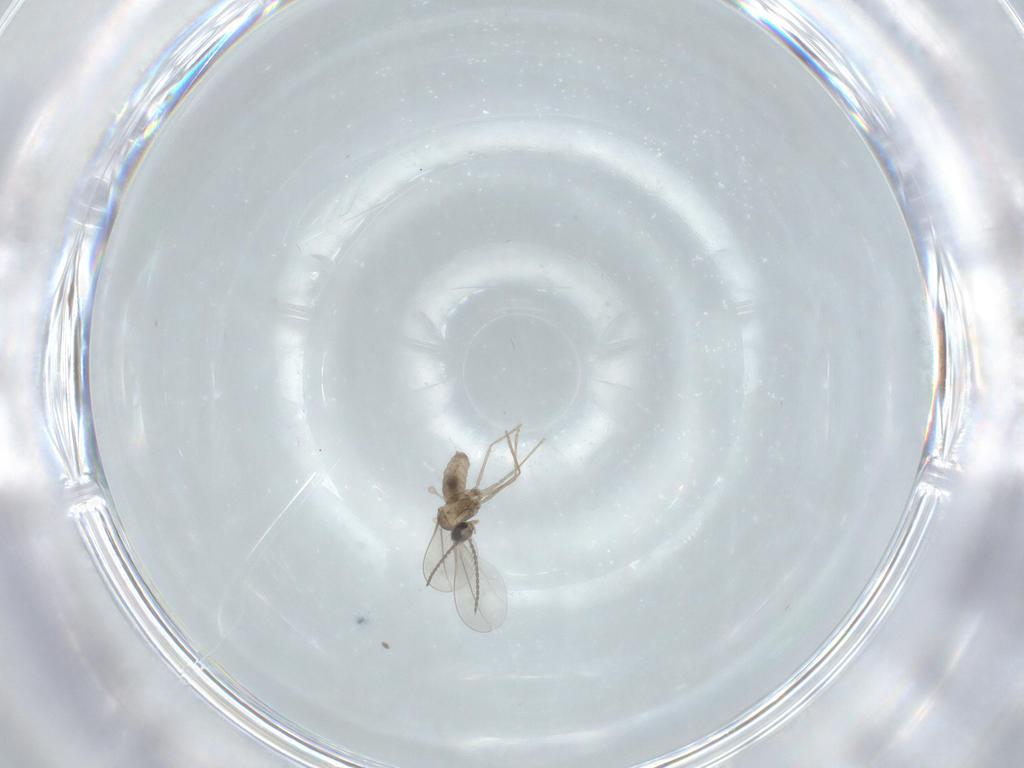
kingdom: Animalia
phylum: Arthropoda
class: Insecta
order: Diptera
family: Cecidomyiidae
